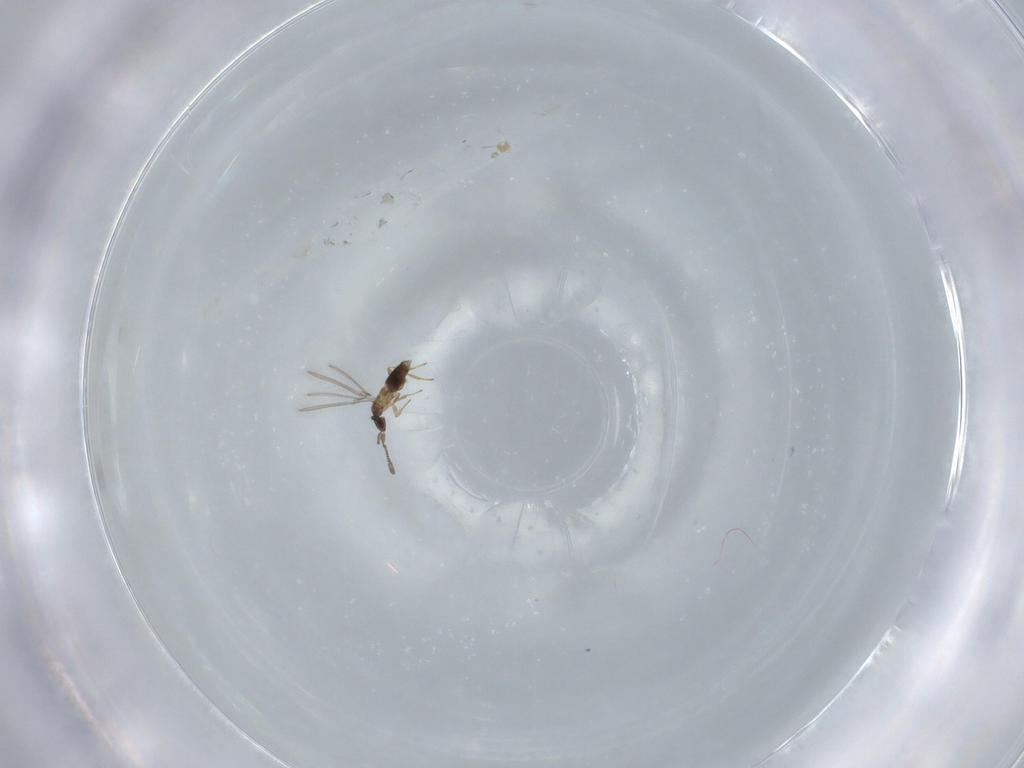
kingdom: Animalia
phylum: Arthropoda
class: Insecta
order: Hymenoptera
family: Mymaridae
